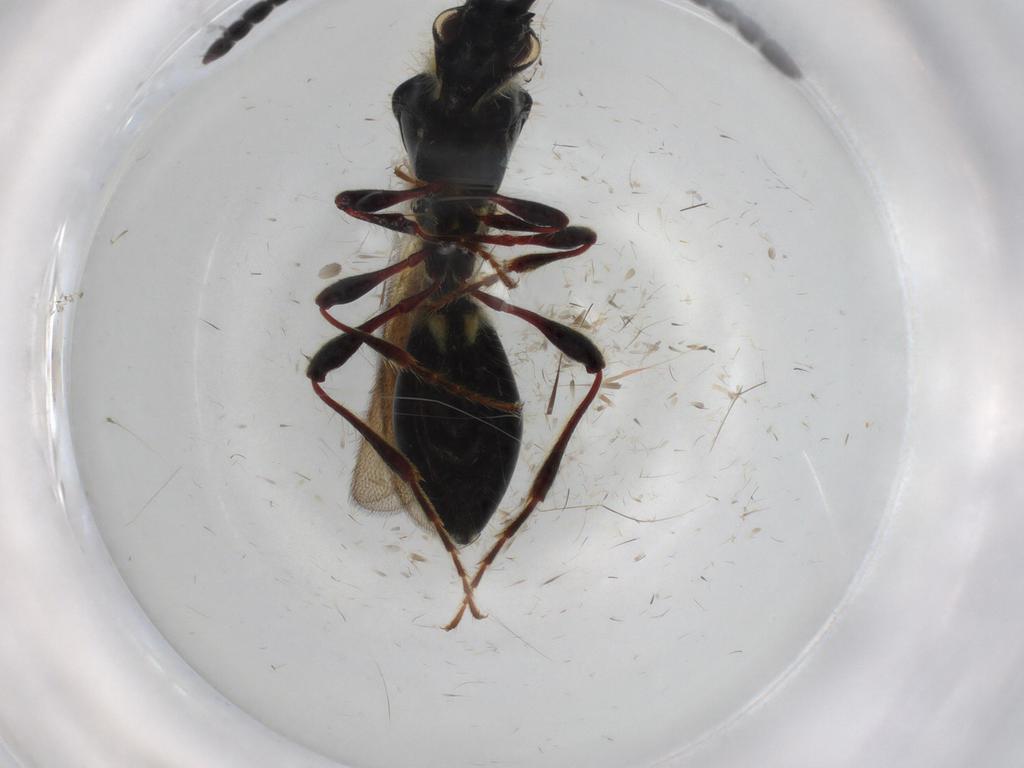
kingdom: Animalia
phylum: Arthropoda
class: Insecta
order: Hymenoptera
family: Diapriidae
